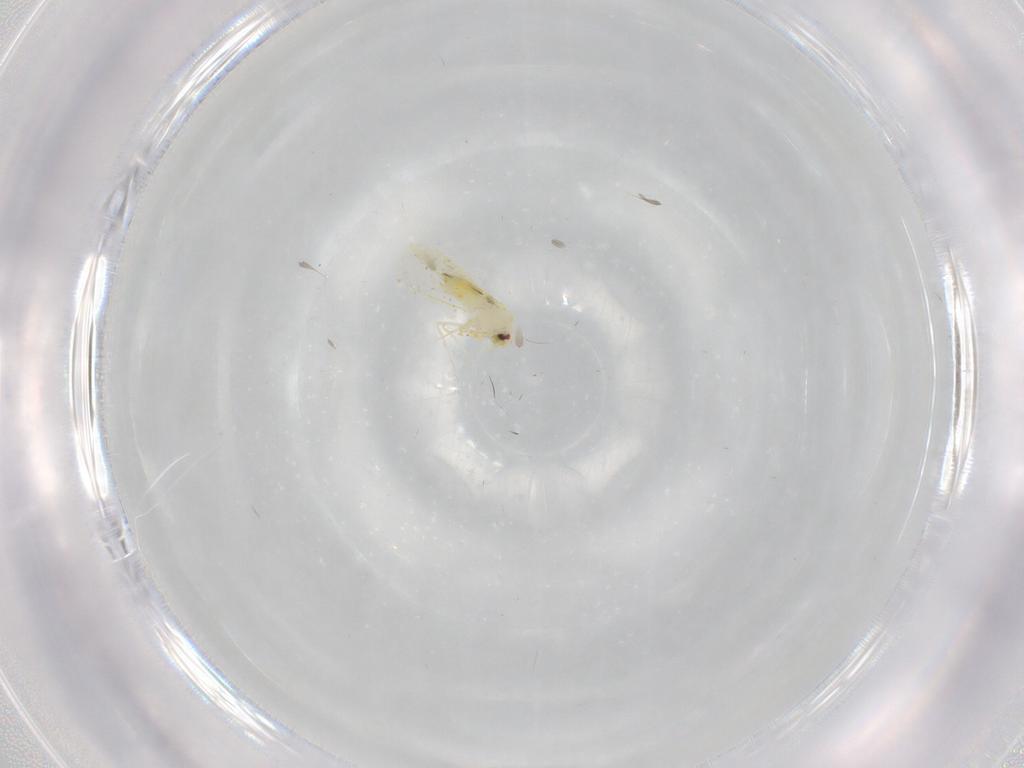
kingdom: Animalia
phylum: Arthropoda
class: Insecta
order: Hemiptera
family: Aleyrodidae
